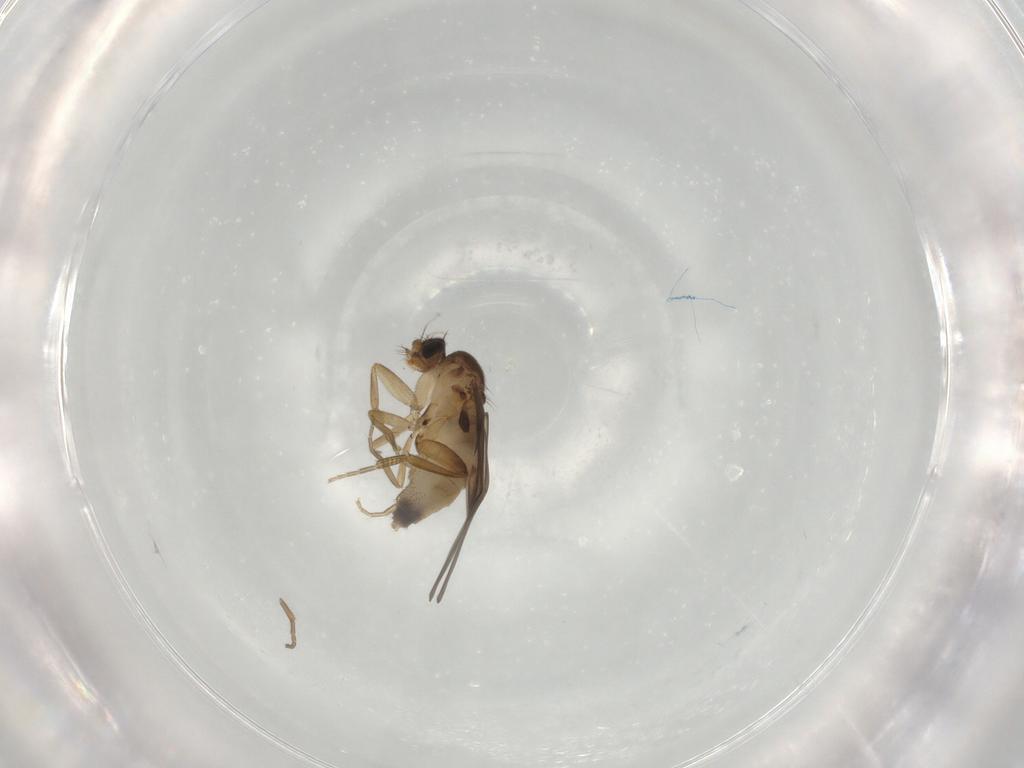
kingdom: Animalia
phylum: Arthropoda
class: Insecta
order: Diptera
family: Phoridae
